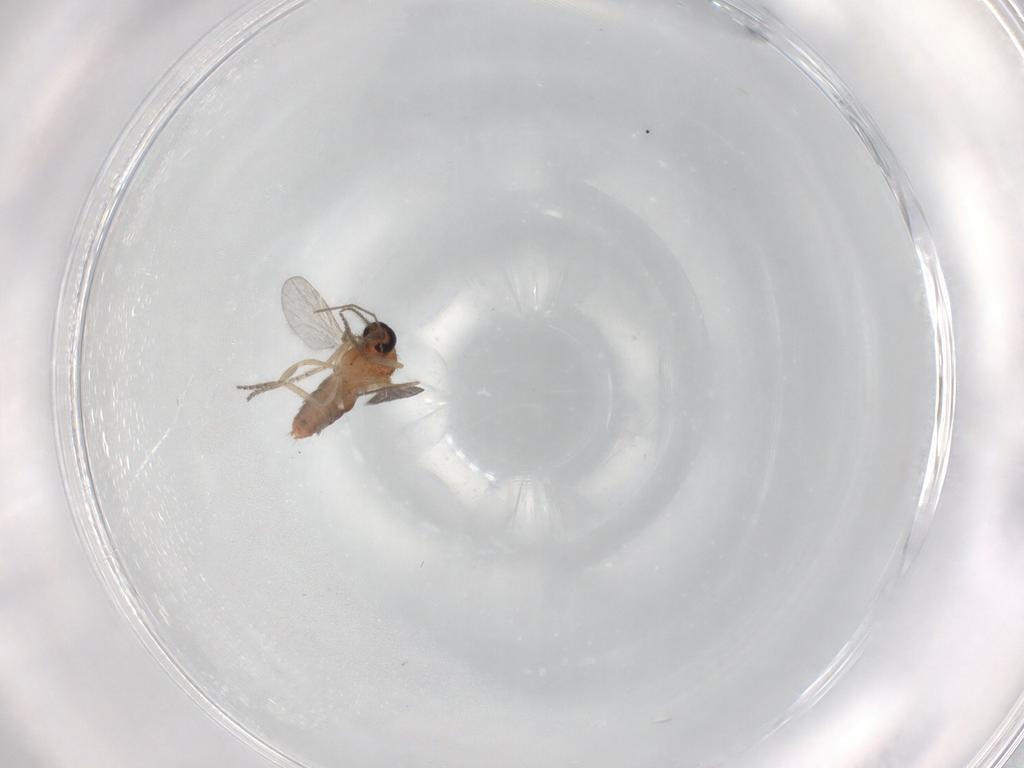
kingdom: Animalia
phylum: Arthropoda
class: Insecta
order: Diptera
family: Ceratopogonidae
